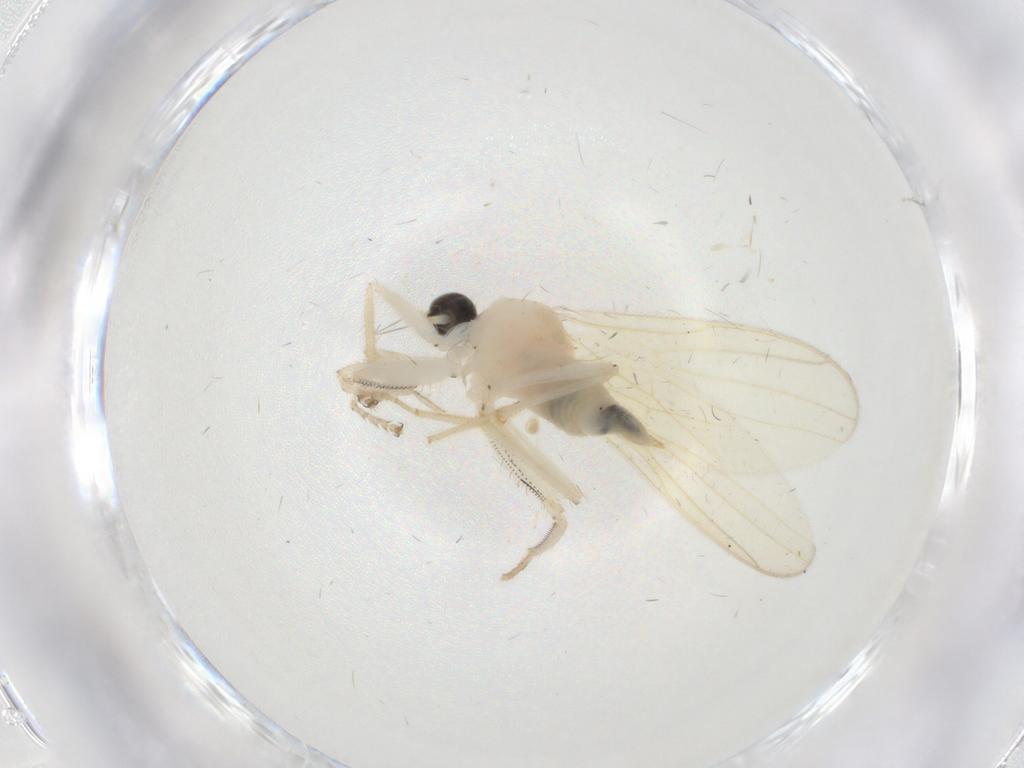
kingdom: Animalia
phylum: Arthropoda
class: Insecta
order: Diptera
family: Hybotidae
